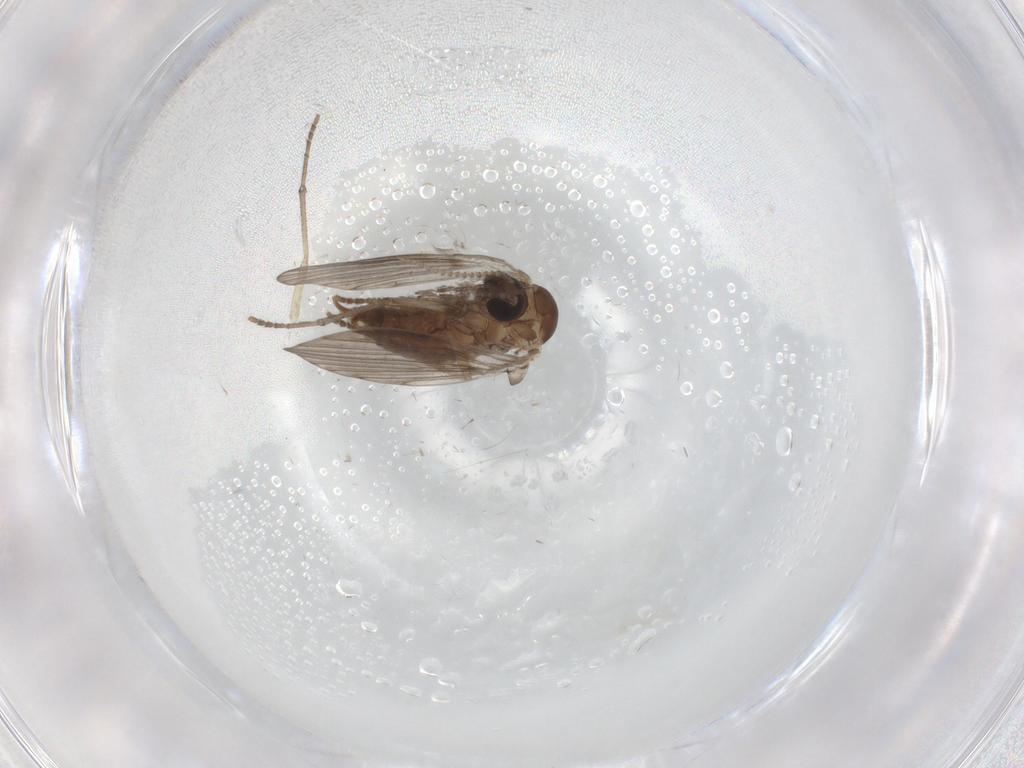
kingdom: Animalia
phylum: Arthropoda
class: Insecta
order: Diptera
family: Psychodidae
